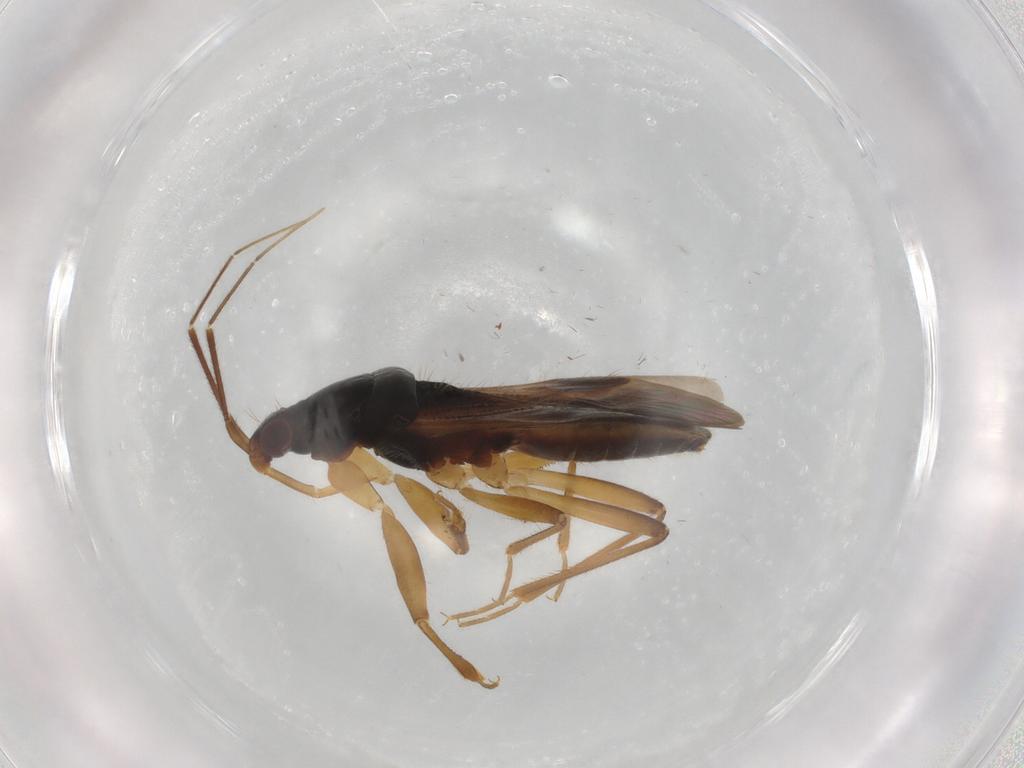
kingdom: Animalia
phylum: Arthropoda
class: Insecta
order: Hemiptera
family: Nabidae
